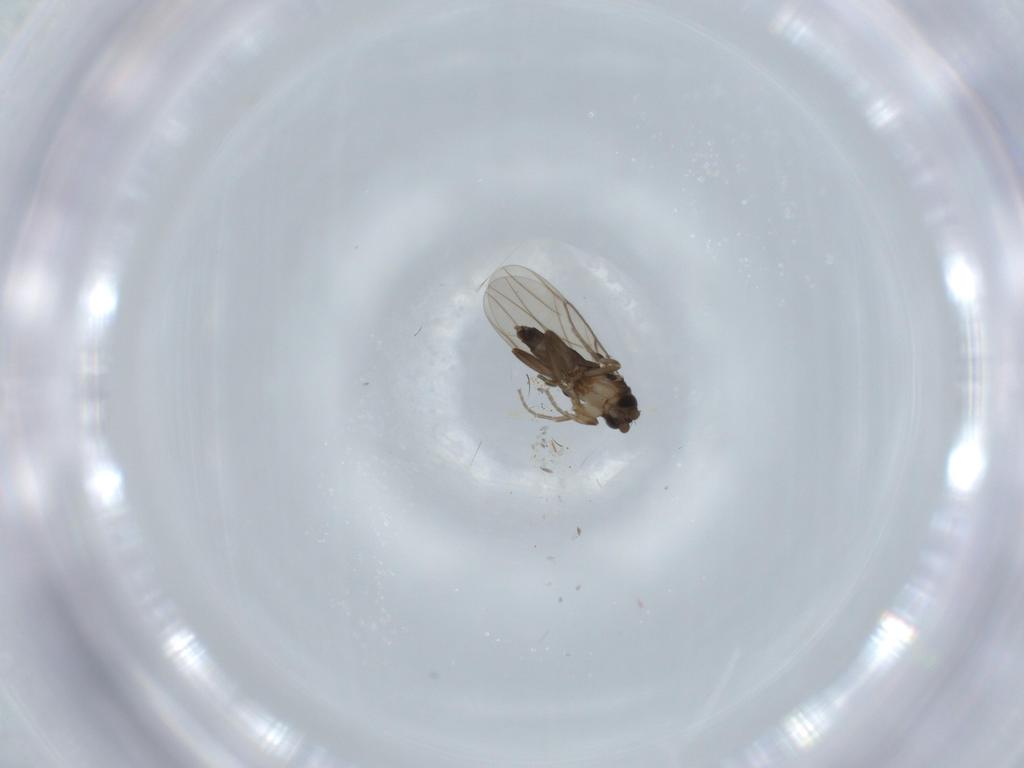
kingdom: Animalia
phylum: Arthropoda
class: Insecta
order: Diptera
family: Phoridae
